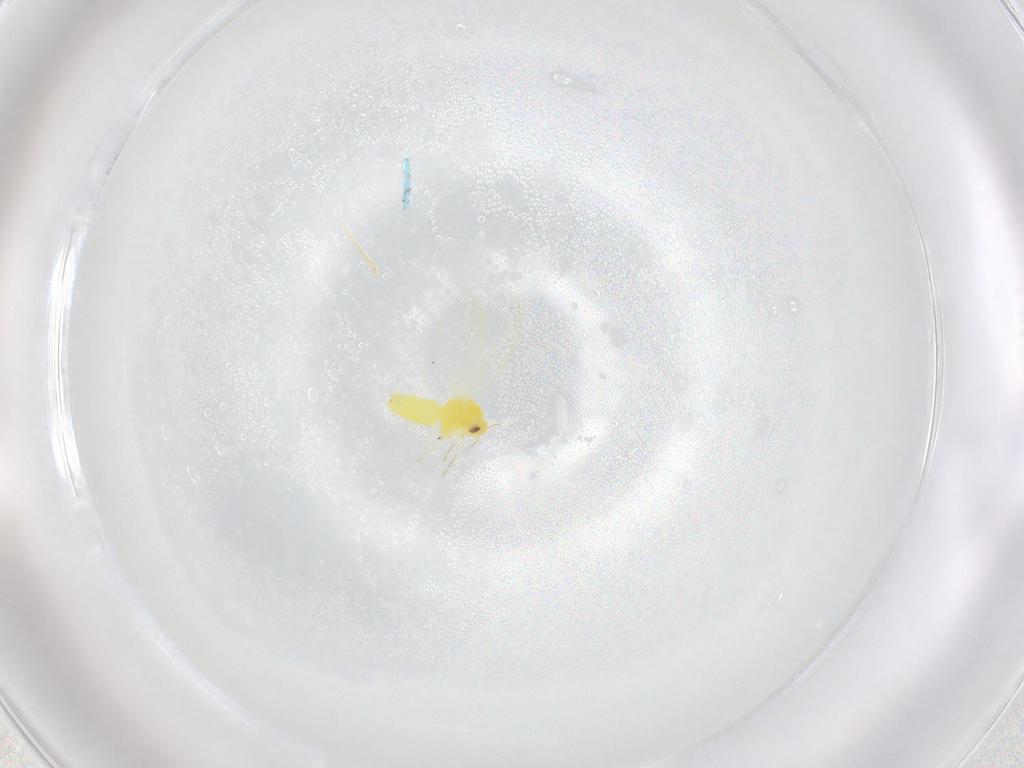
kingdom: Animalia
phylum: Arthropoda
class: Insecta
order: Hemiptera
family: Aleyrodidae
